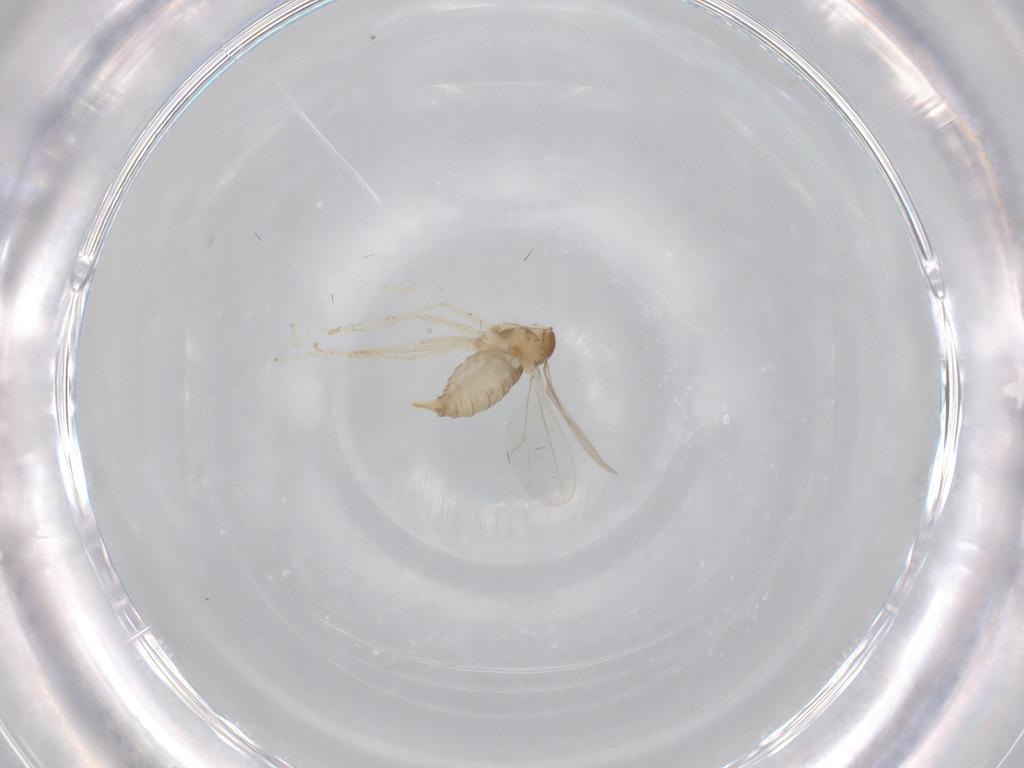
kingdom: Animalia
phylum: Arthropoda
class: Insecta
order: Diptera
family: Cecidomyiidae
